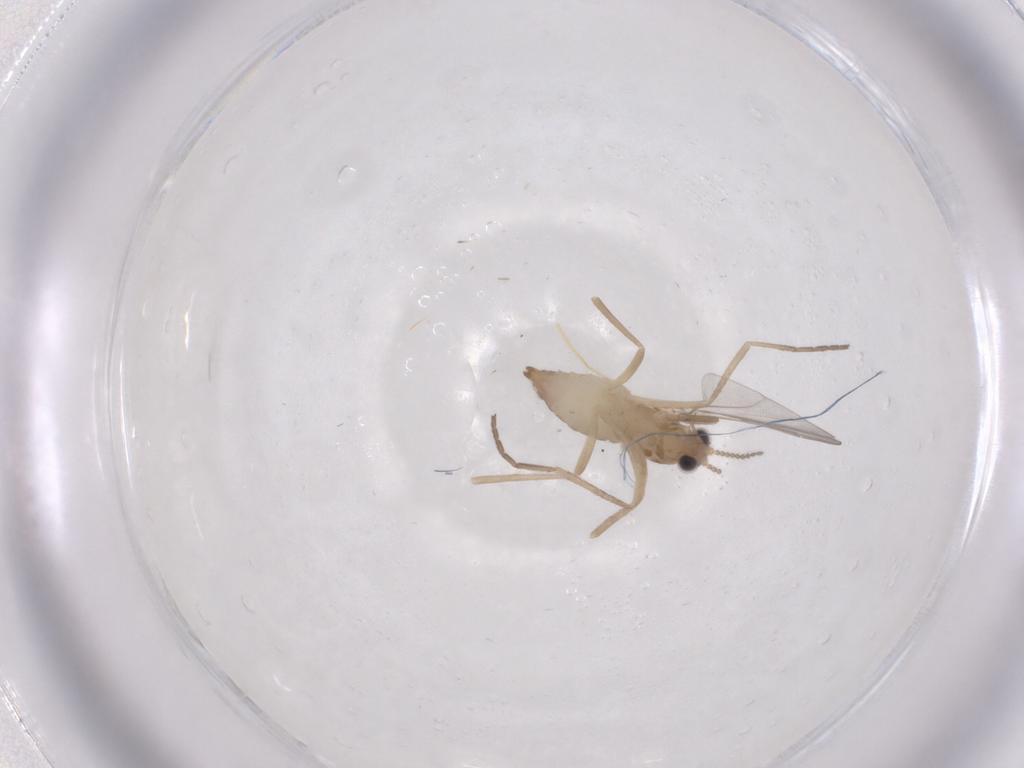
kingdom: Animalia
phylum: Arthropoda
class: Insecta
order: Diptera
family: Cecidomyiidae
